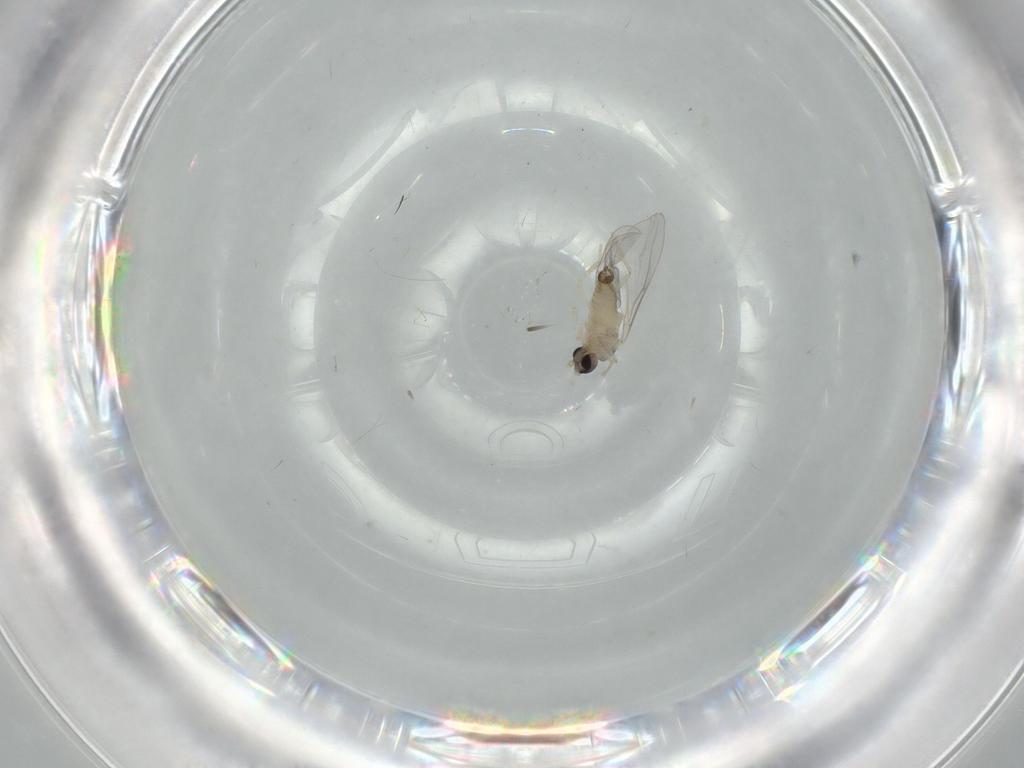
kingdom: Animalia
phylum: Arthropoda
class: Insecta
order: Diptera
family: Cecidomyiidae
